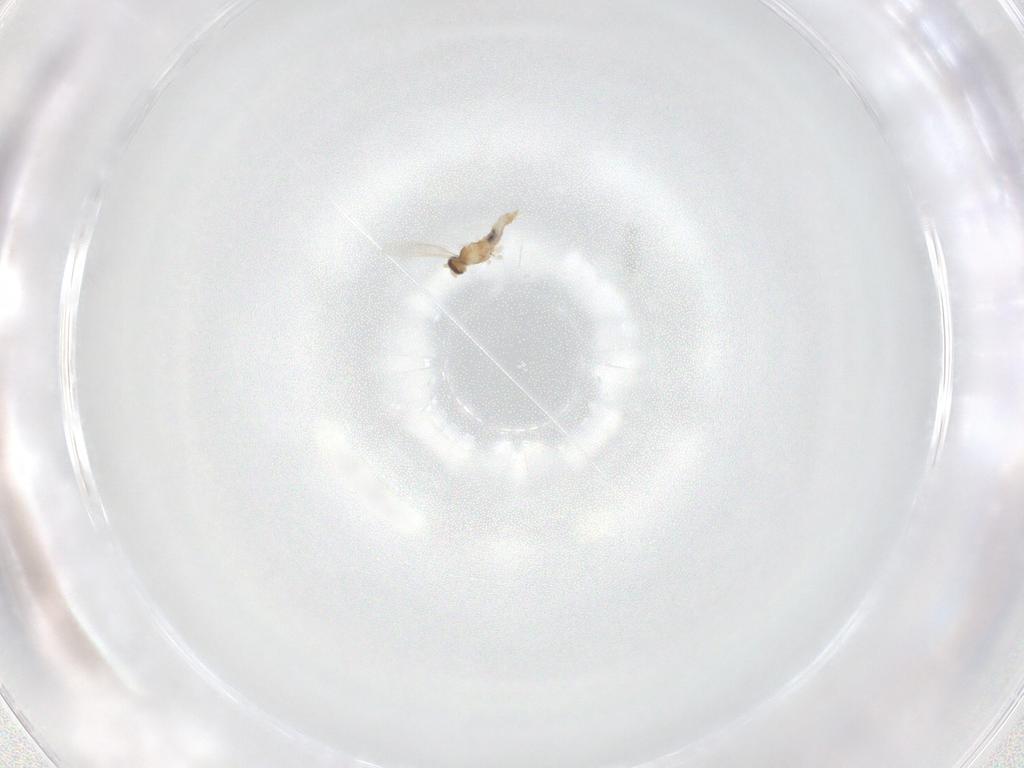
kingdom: Animalia
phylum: Arthropoda
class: Insecta
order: Diptera
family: Cecidomyiidae
